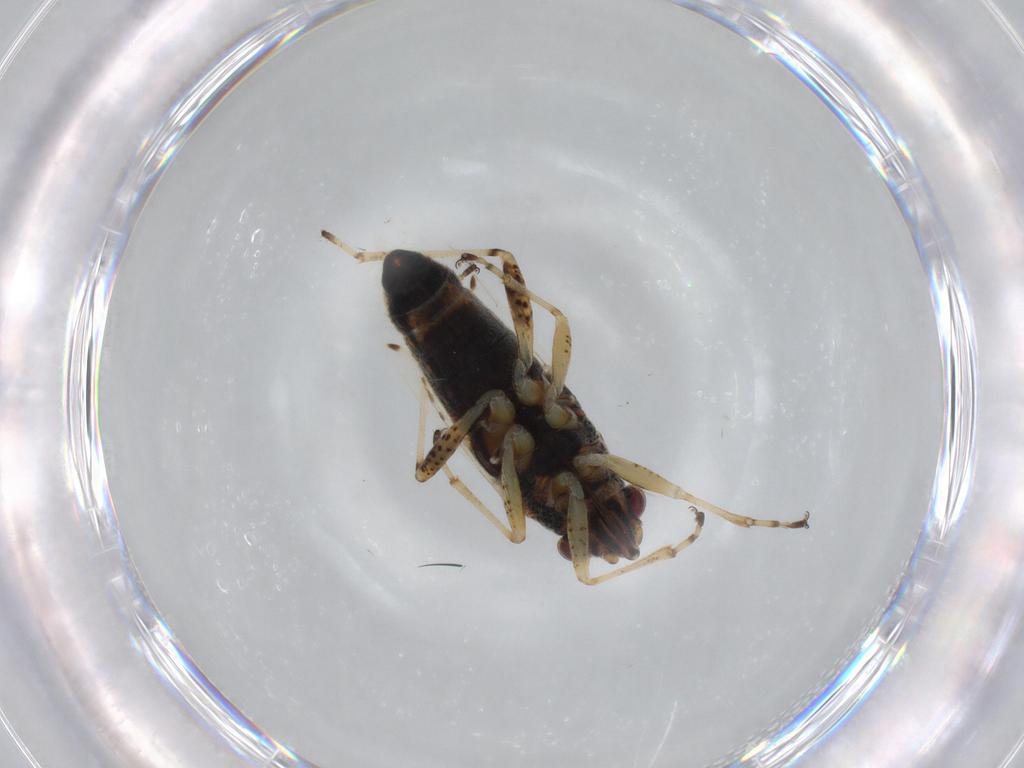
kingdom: Animalia
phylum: Arthropoda
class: Insecta
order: Hemiptera
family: Lygaeidae
